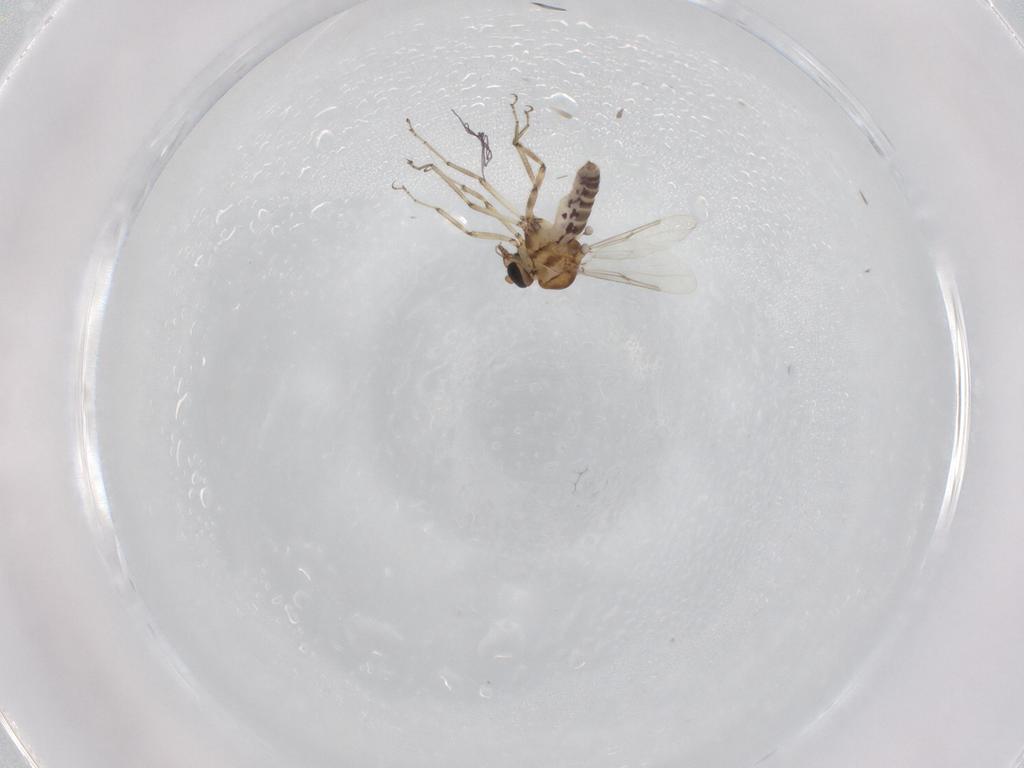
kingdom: Animalia
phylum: Arthropoda
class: Insecta
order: Diptera
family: Ceratopogonidae
